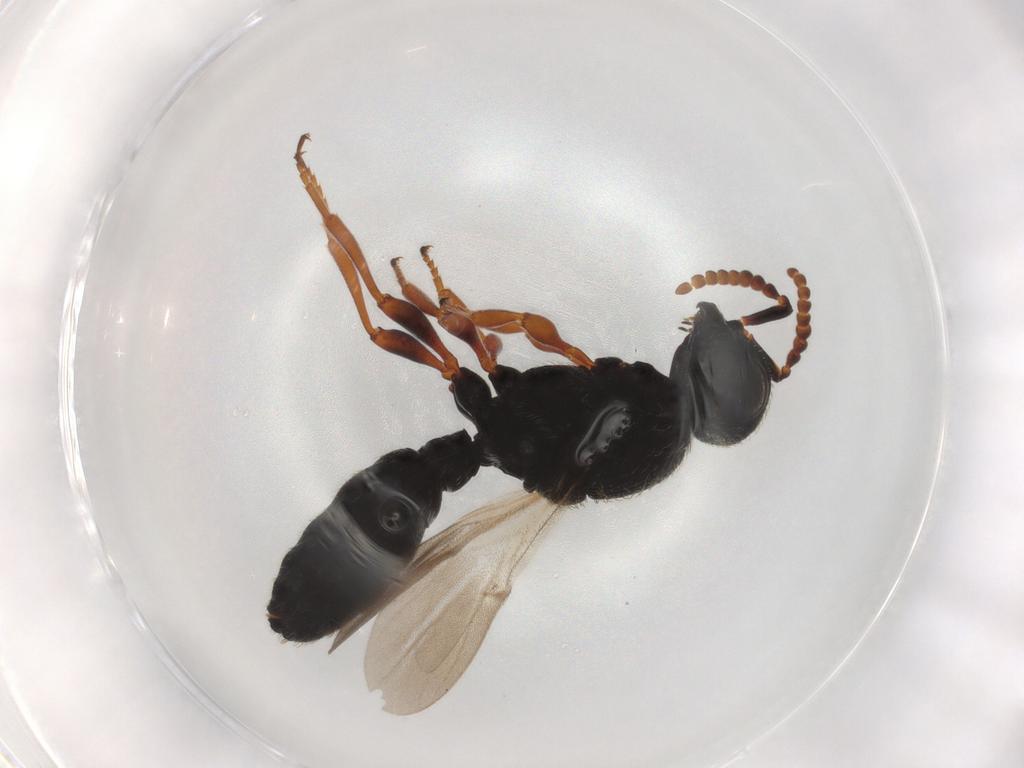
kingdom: Animalia
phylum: Arthropoda
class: Insecta
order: Hymenoptera
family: Scelionidae
